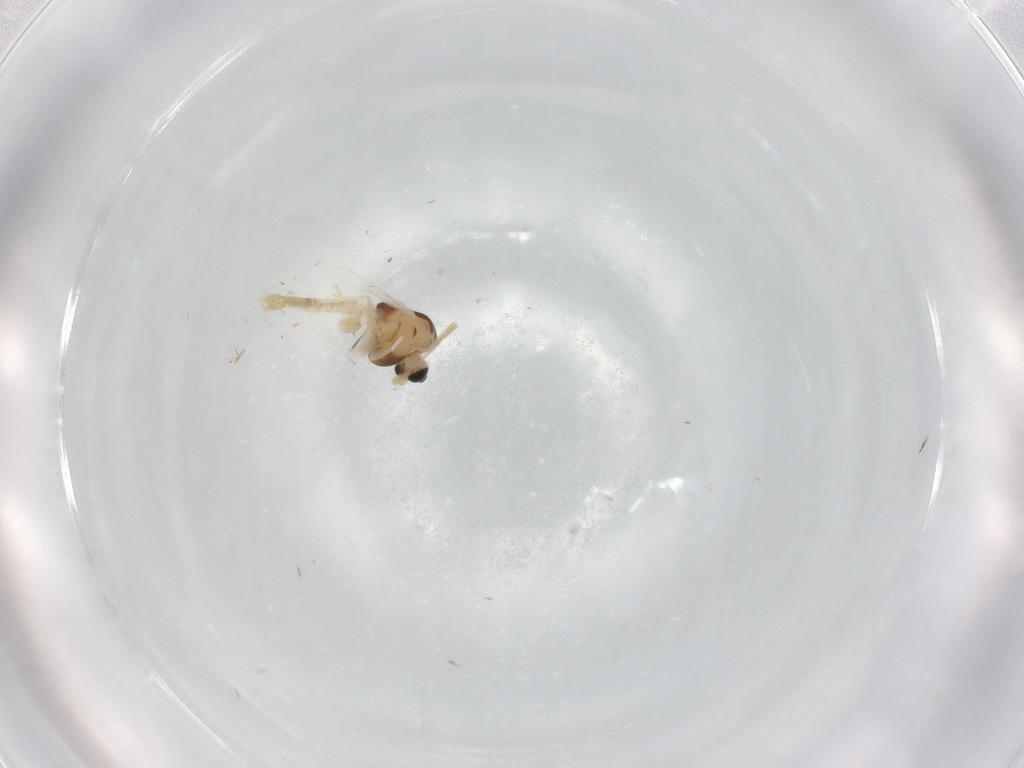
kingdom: Animalia
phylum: Arthropoda
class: Insecta
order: Diptera
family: Chironomidae
